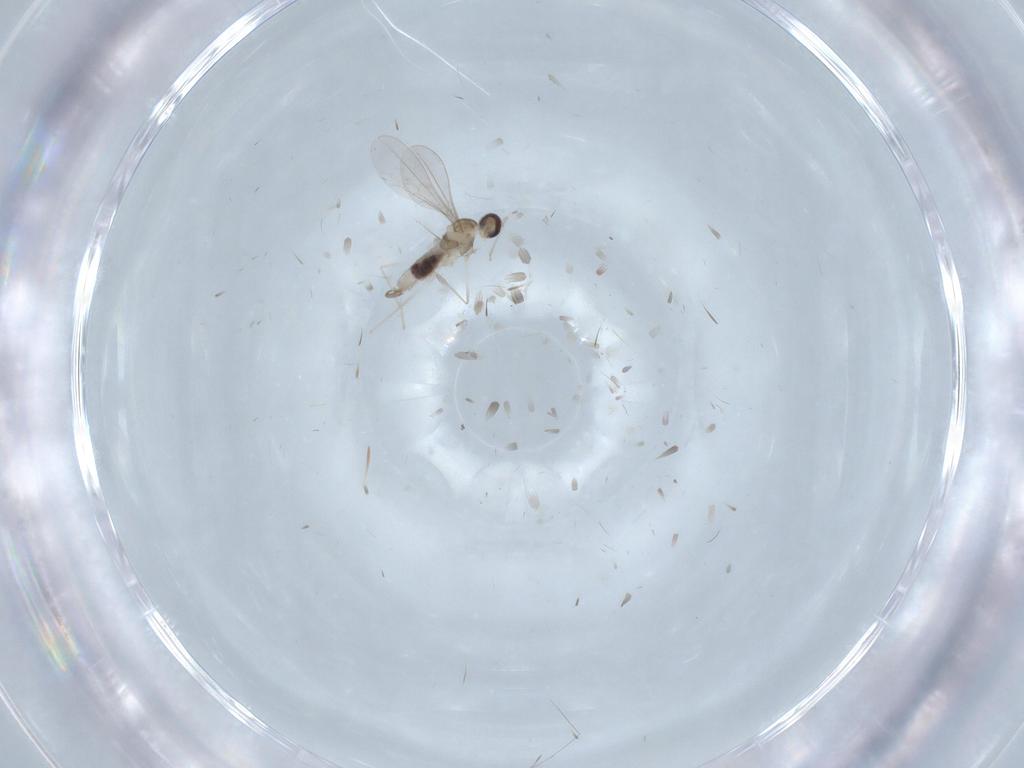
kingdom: Animalia
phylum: Arthropoda
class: Insecta
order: Diptera
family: Sciaridae
